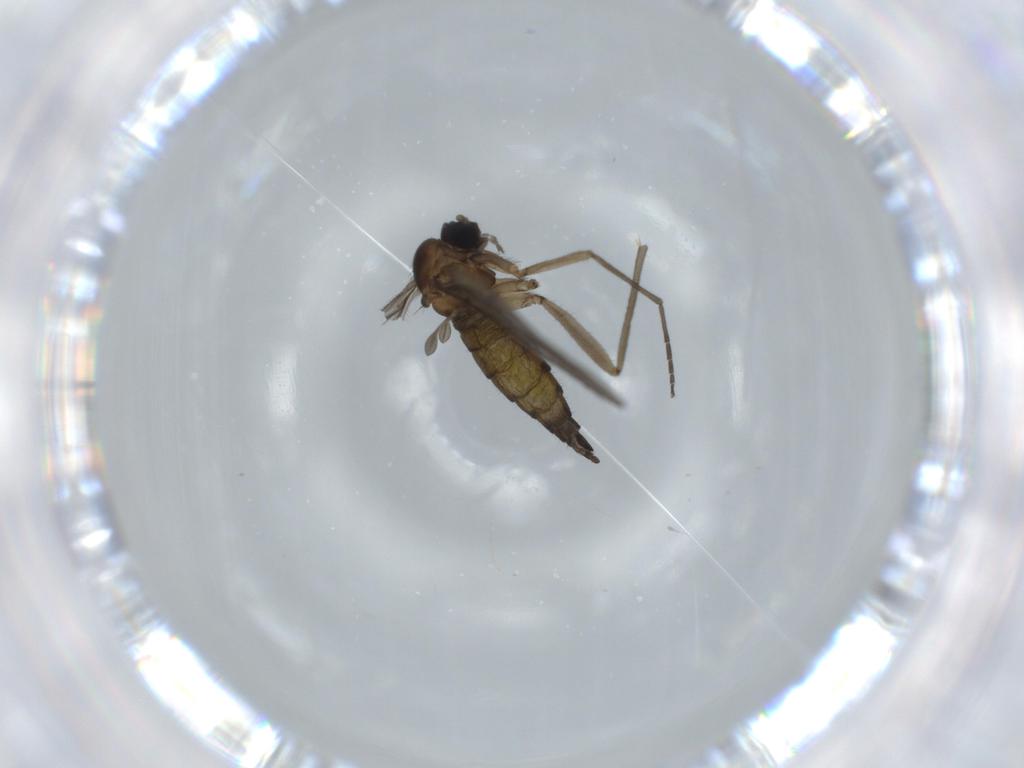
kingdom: Animalia
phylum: Arthropoda
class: Insecta
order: Diptera
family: Sciaridae
